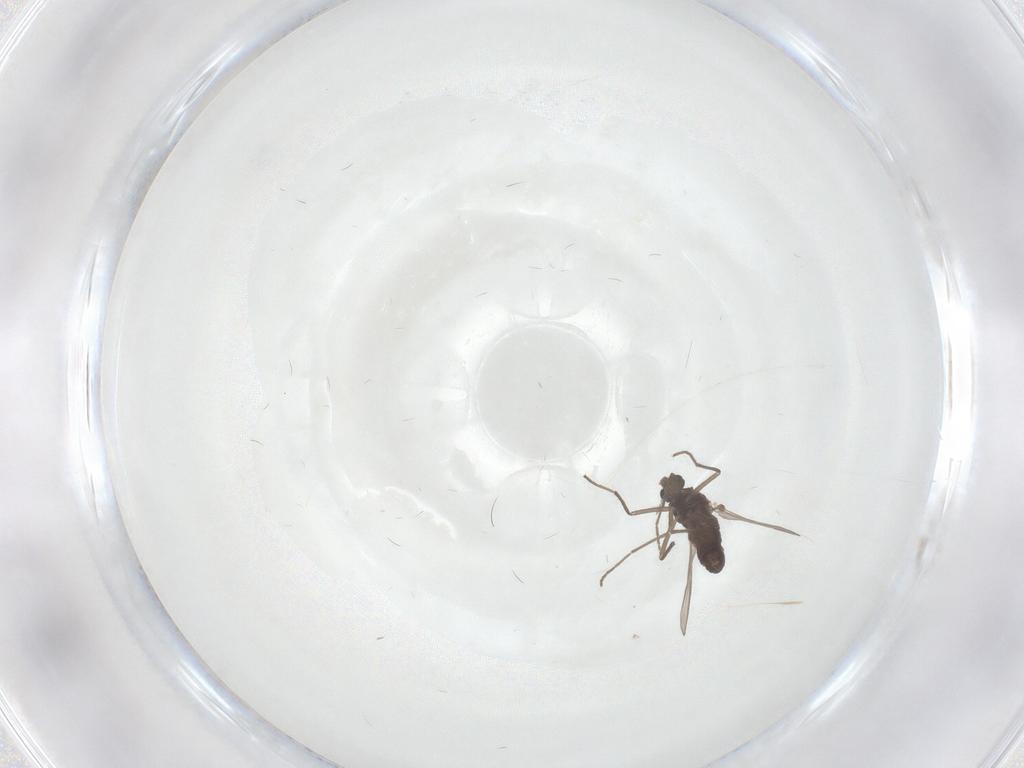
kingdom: Animalia
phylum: Arthropoda
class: Insecta
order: Diptera
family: Chironomidae
